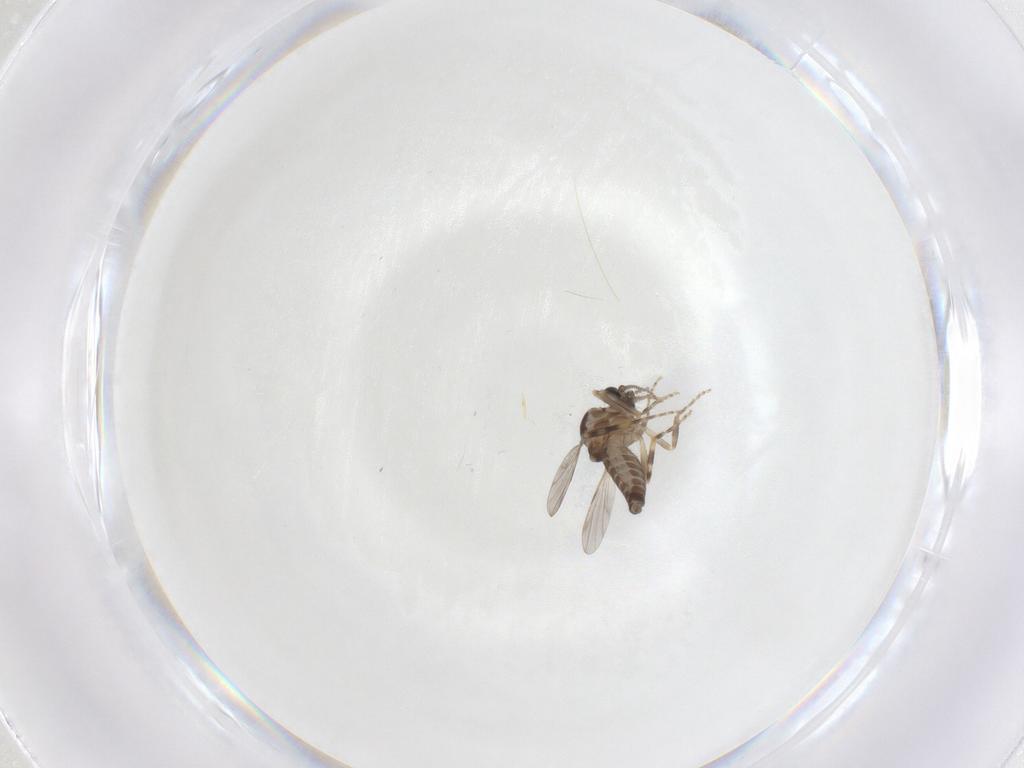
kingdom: Animalia
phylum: Arthropoda
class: Insecta
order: Diptera
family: Ceratopogonidae
